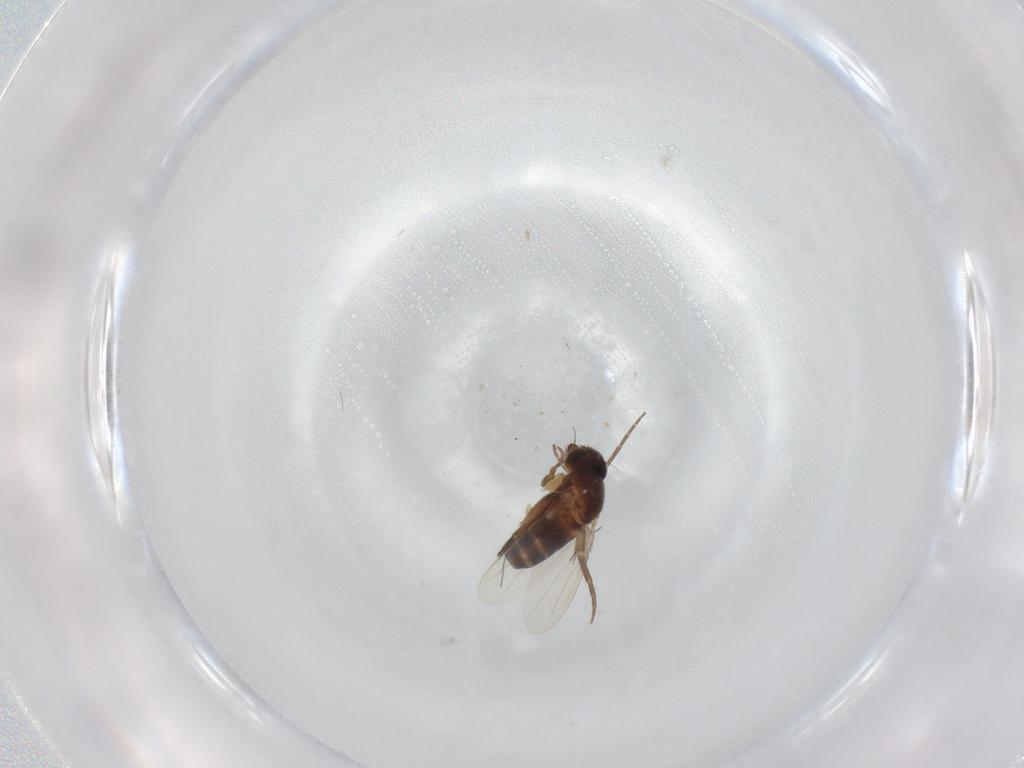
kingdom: Animalia
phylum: Arthropoda
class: Insecta
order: Diptera
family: Phoridae
